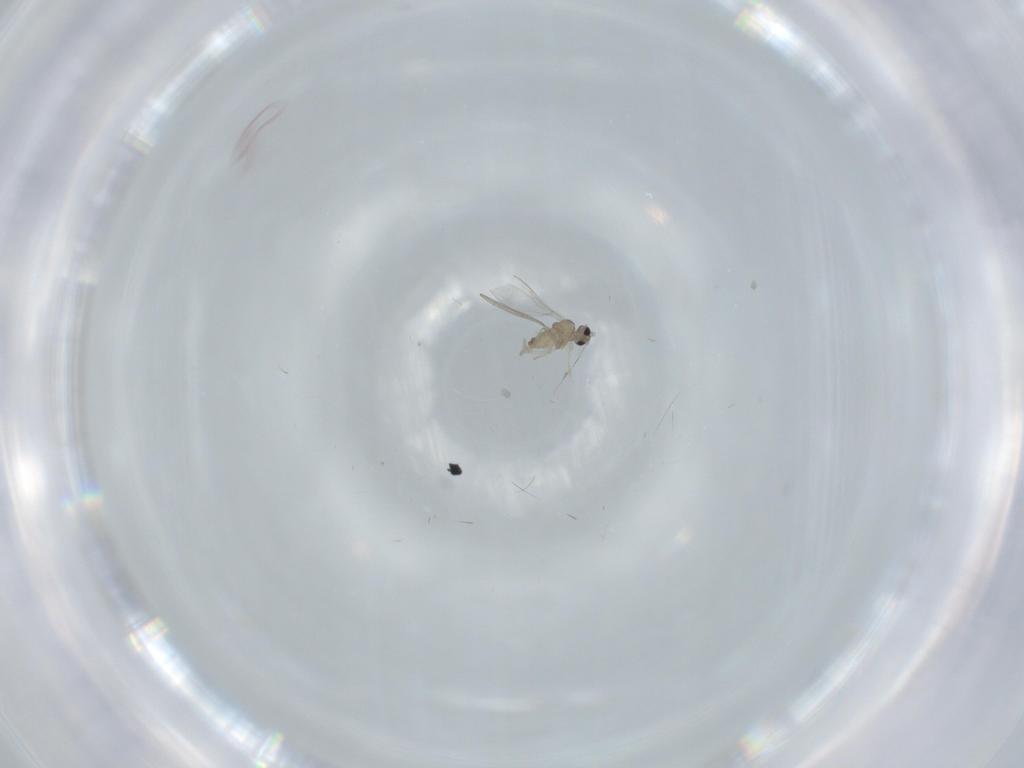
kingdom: Animalia
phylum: Arthropoda
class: Insecta
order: Diptera
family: Cecidomyiidae
